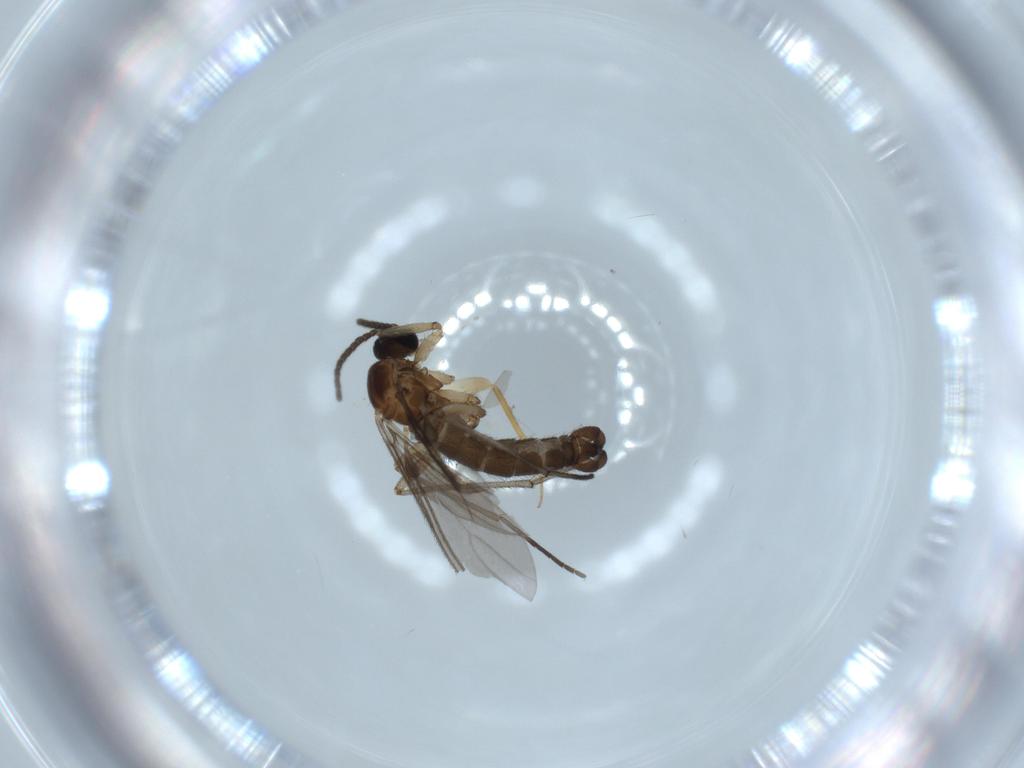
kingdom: Animalia
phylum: Arthropoda
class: Insecta
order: Diptera
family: Sciaridae
